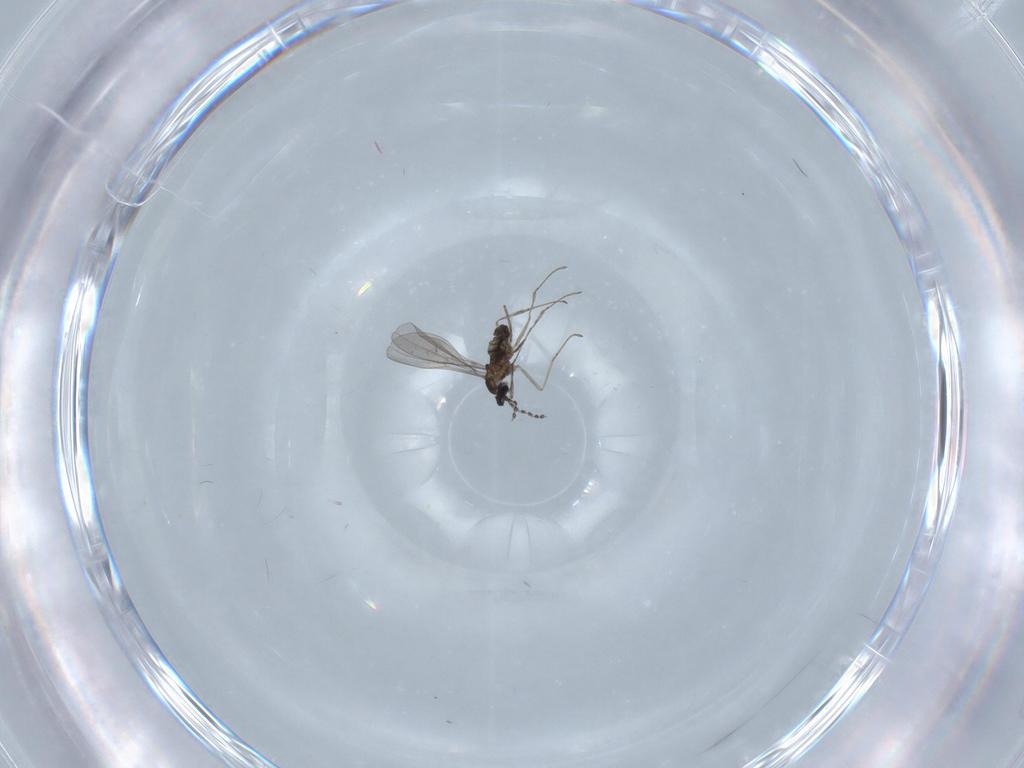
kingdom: Animalia
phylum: Arthropoda
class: Insecta
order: Diptera
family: Cecidomyiidae
